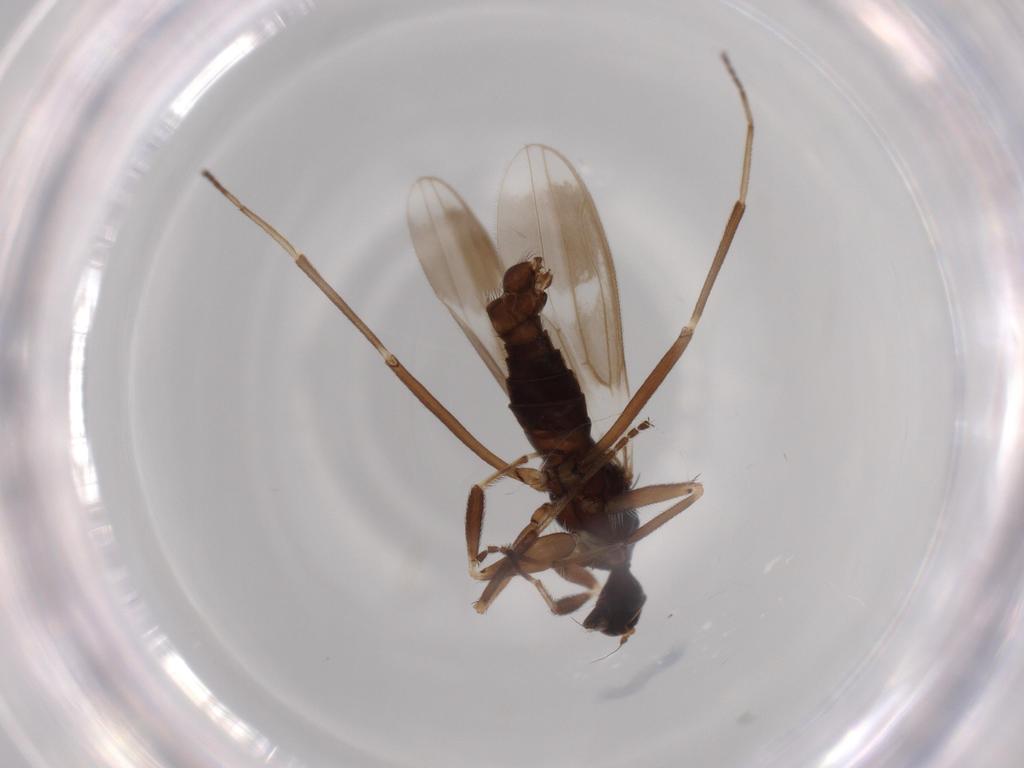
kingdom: Animalia
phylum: Arthropoda
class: Insecta
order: Diptera
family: Hybotidae
